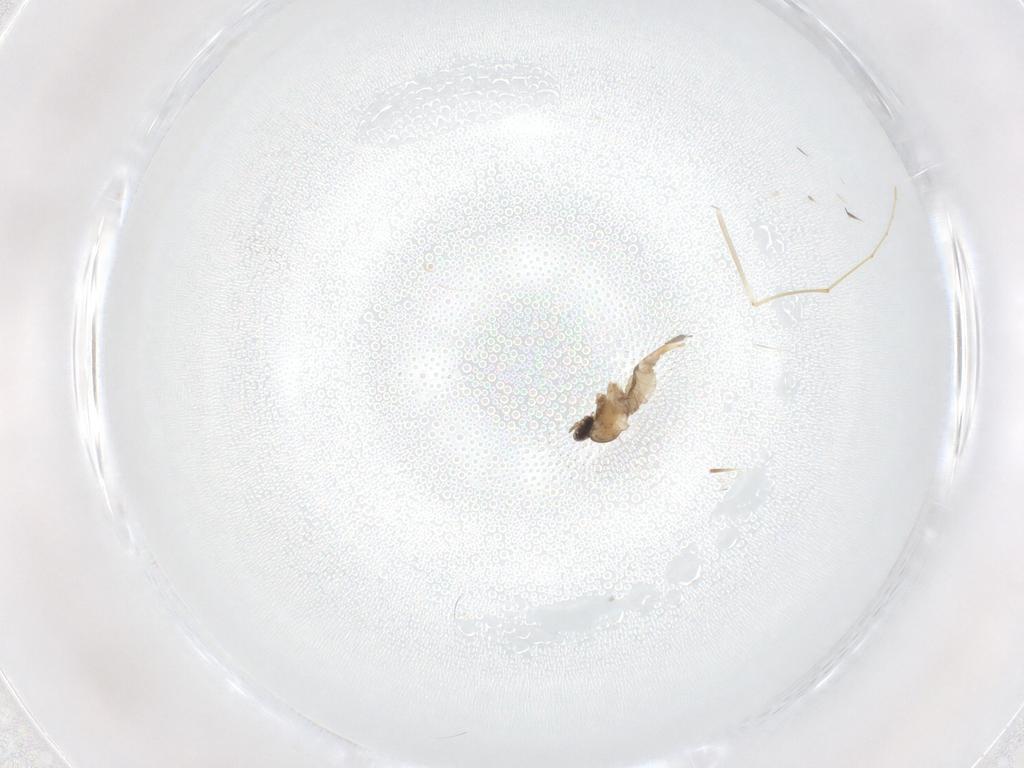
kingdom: Animalia
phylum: Arthropoda
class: Insecta
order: Diptera
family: Cecidomyiidae
